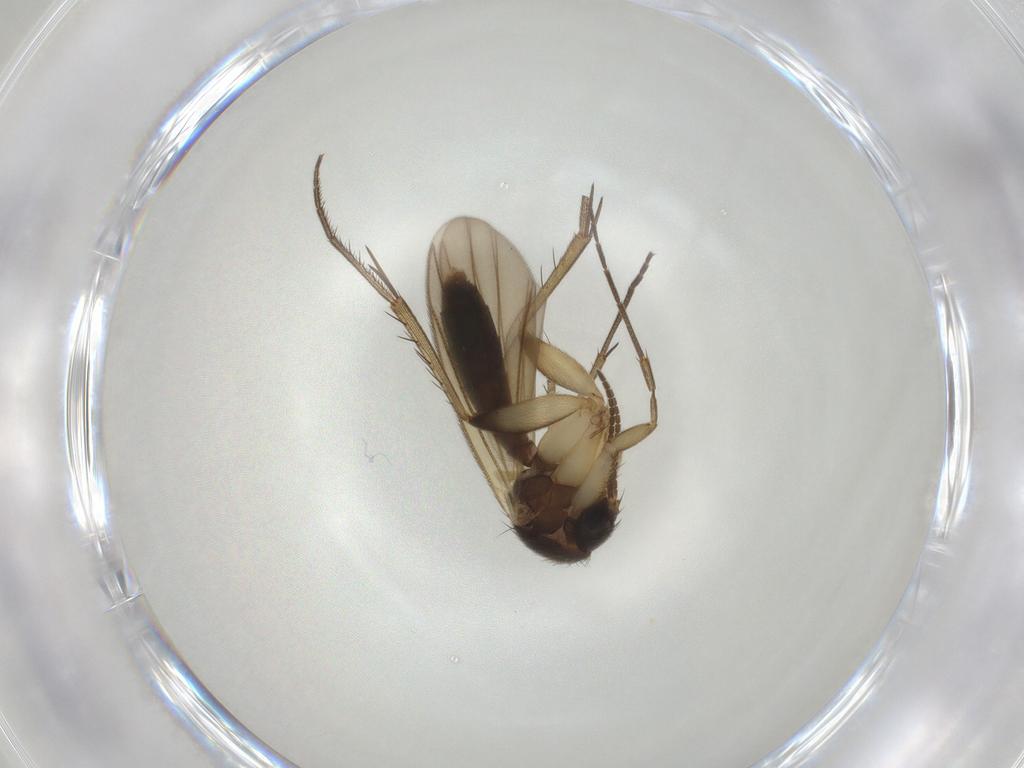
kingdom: Animalia
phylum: Arthropoda
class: Insecta
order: Diptera
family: Mycetophilidae
